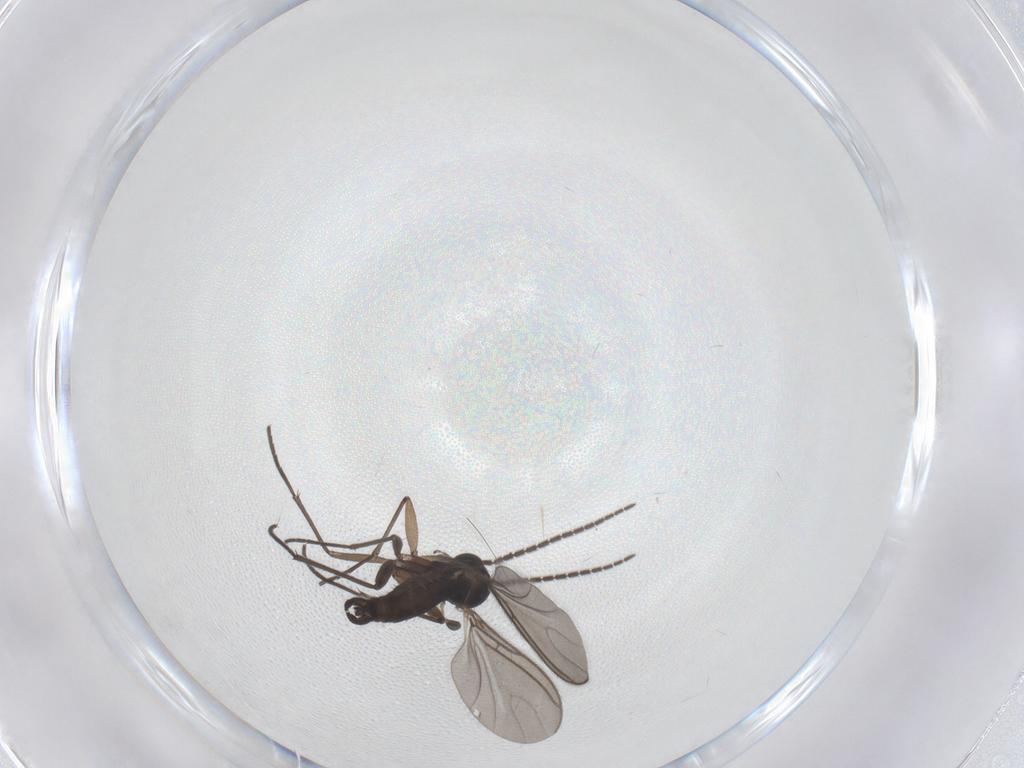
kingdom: Animalia
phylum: Arthropoda
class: Insecta
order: Diptera
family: Sciaridae
